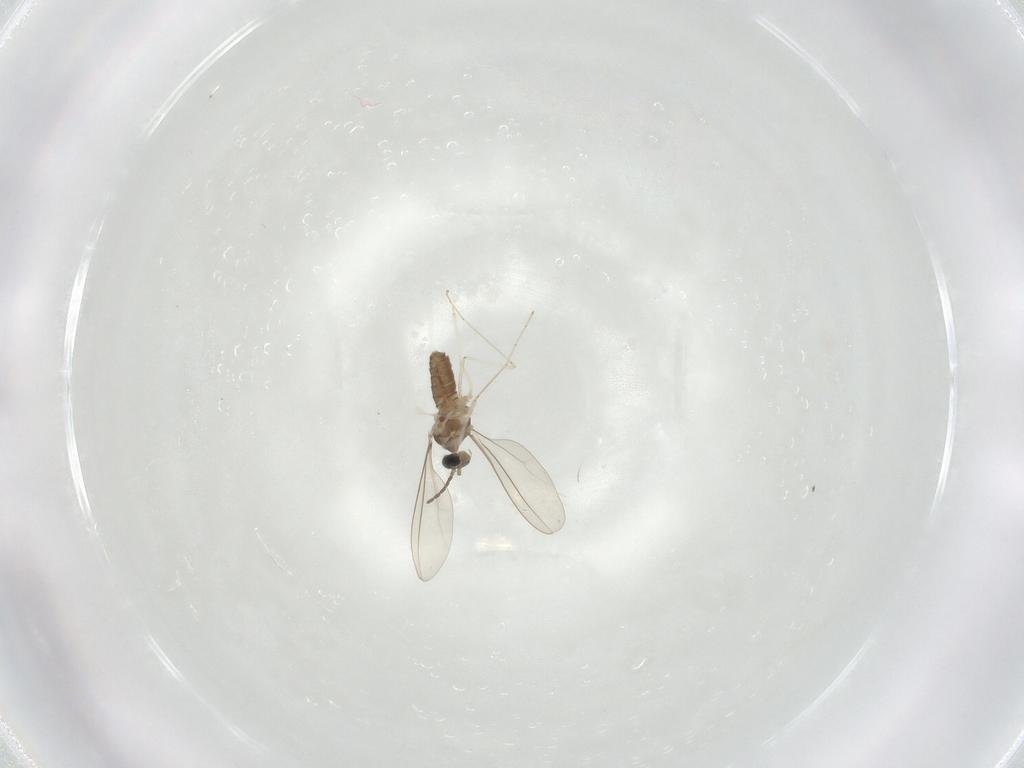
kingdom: Animalia
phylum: Arthropoda
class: Insecta
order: Diptera
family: Cecidomyiidae
